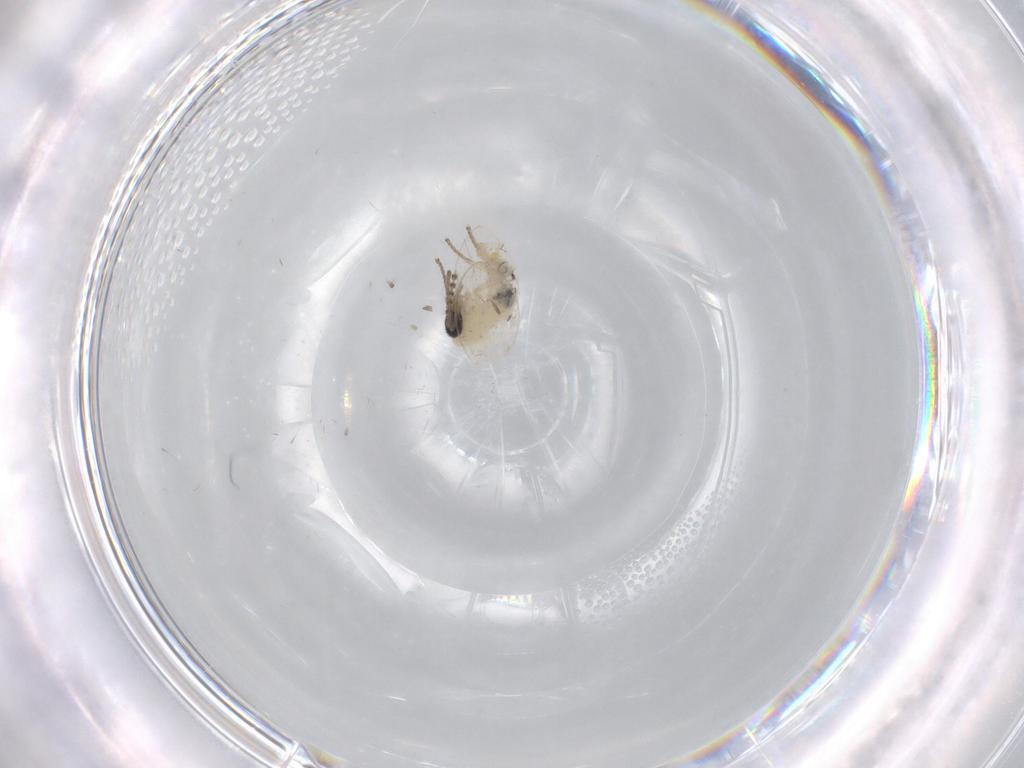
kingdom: Animalia
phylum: Arthropoda
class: Insecta
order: Diptera
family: Psychodidae
